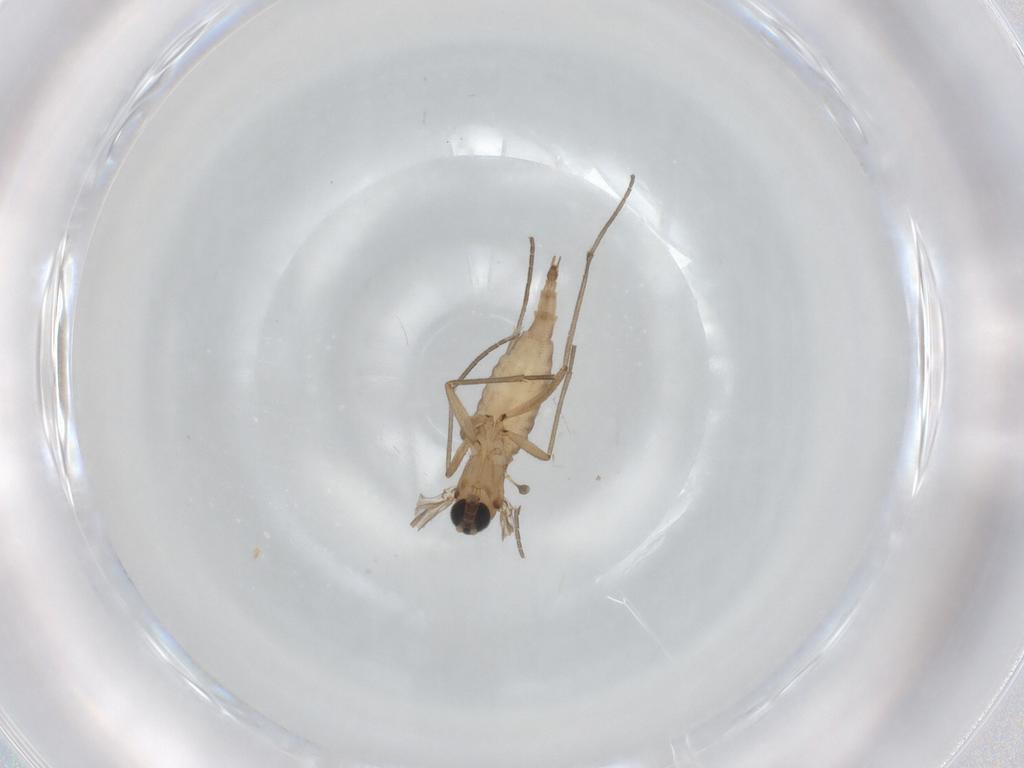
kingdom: Animalia
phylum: Arthropoda
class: Insecta
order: Diptera
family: Sciaridae
